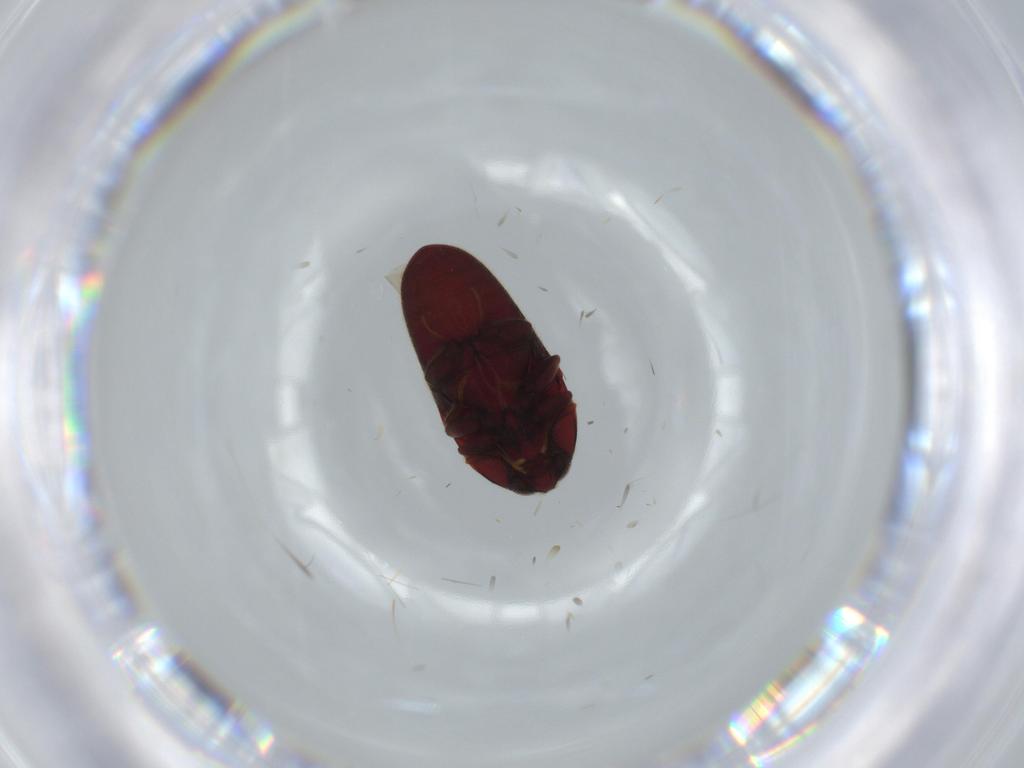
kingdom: Animalia
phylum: Arthropoda
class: Insecta
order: Coleoptera
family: Throscidae
